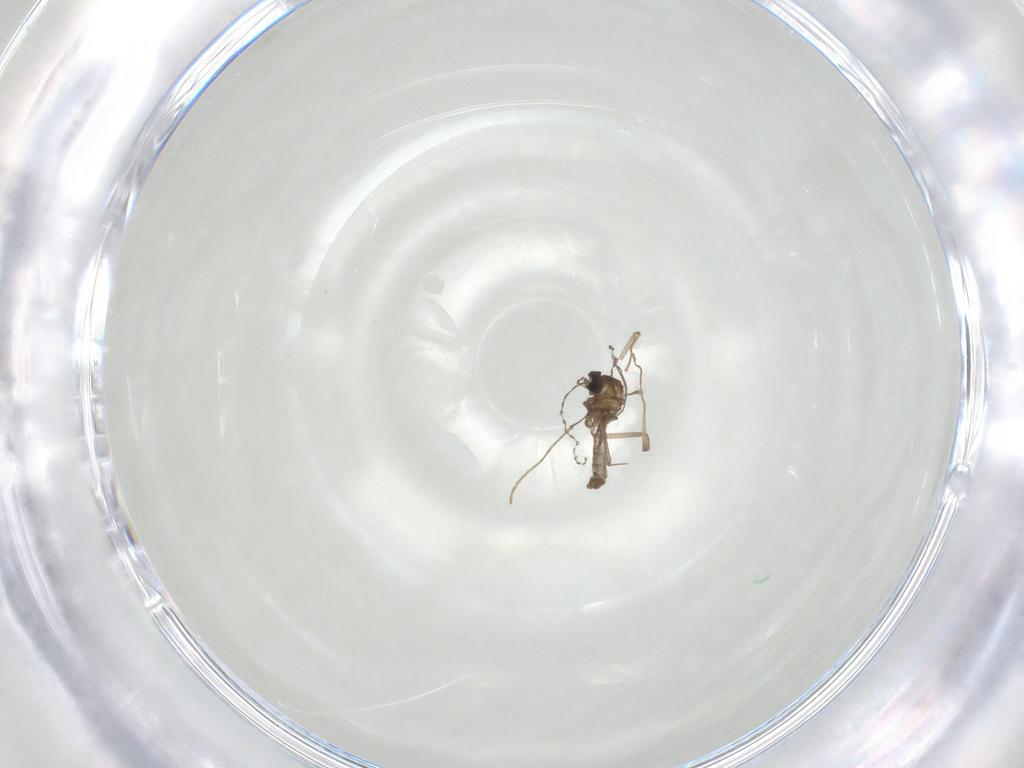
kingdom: Animalia
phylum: Arthropoda
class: Insecta
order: Diptera
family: Cecidomyiidae
